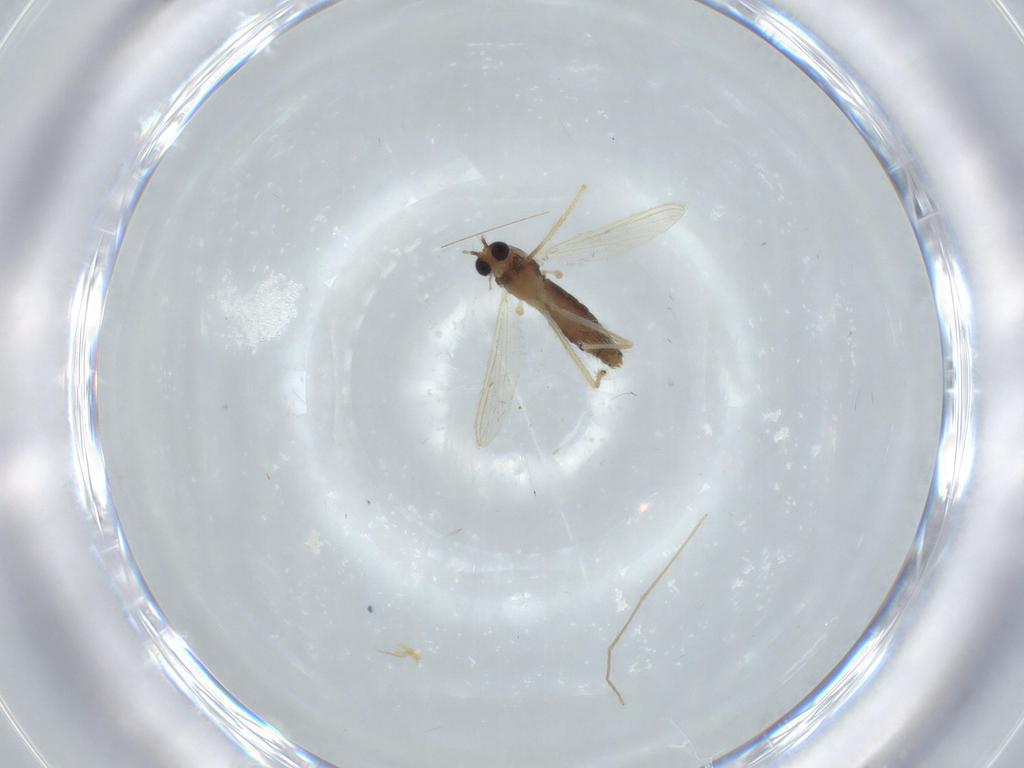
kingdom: Animalia
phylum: Arthropoda
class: Insecta
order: Diptera
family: Chironomidae
